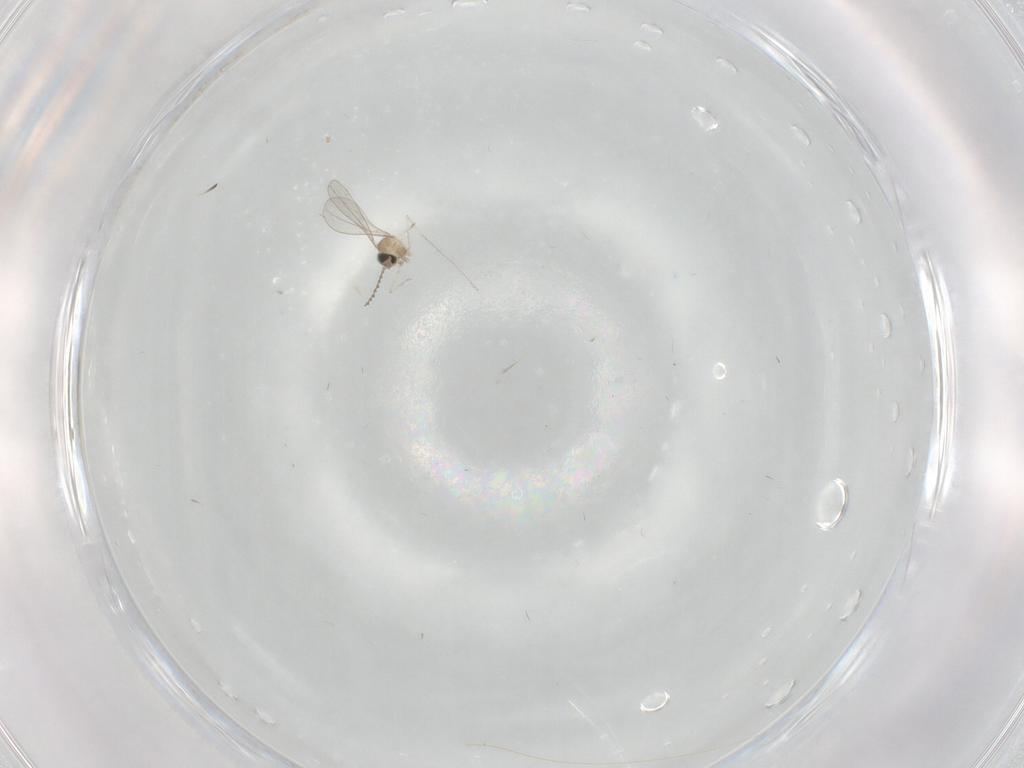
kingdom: Animalia
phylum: Arthropoda
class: Insecta
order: Diptera
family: Cecidomyiidae
